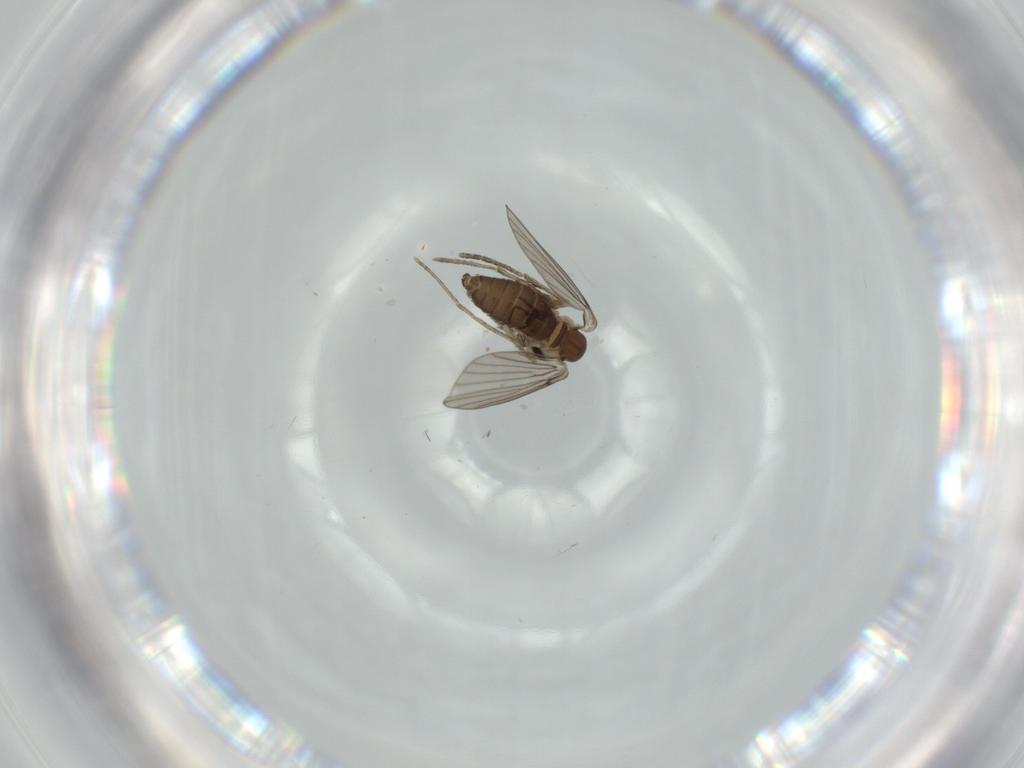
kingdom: Animalia
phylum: Arthropoda
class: Insecta
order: Diptera
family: Psychodidae
